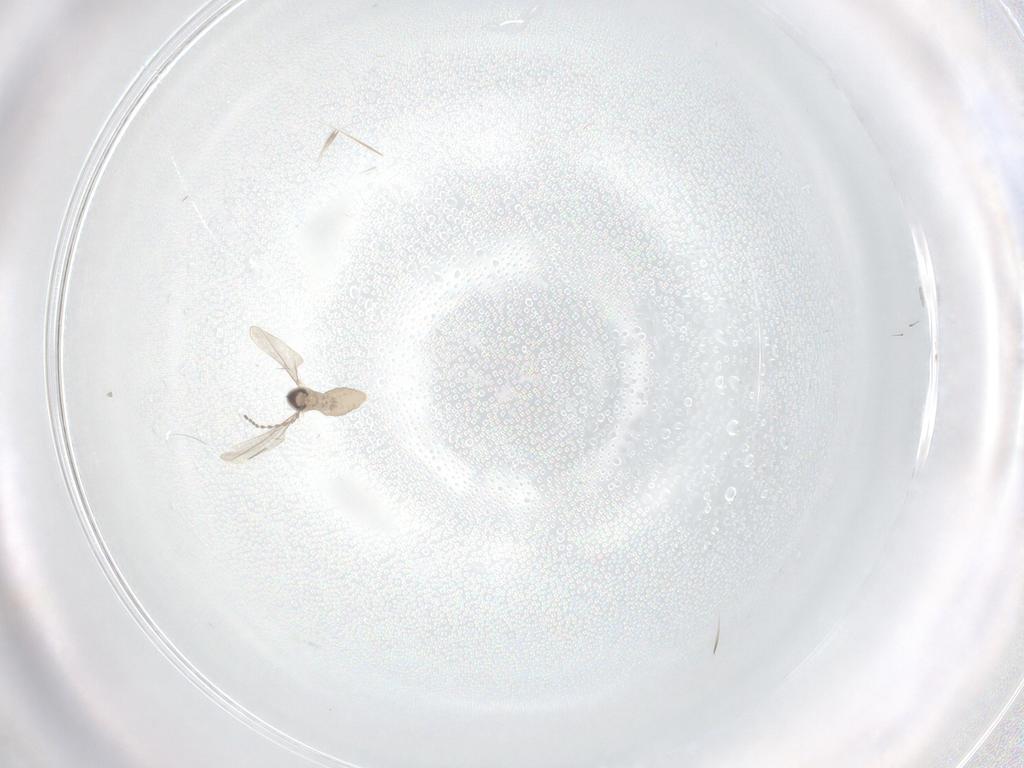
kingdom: Animalia
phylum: Arthropoda
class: Insecta
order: Diptera
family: Cecidomyiidae
